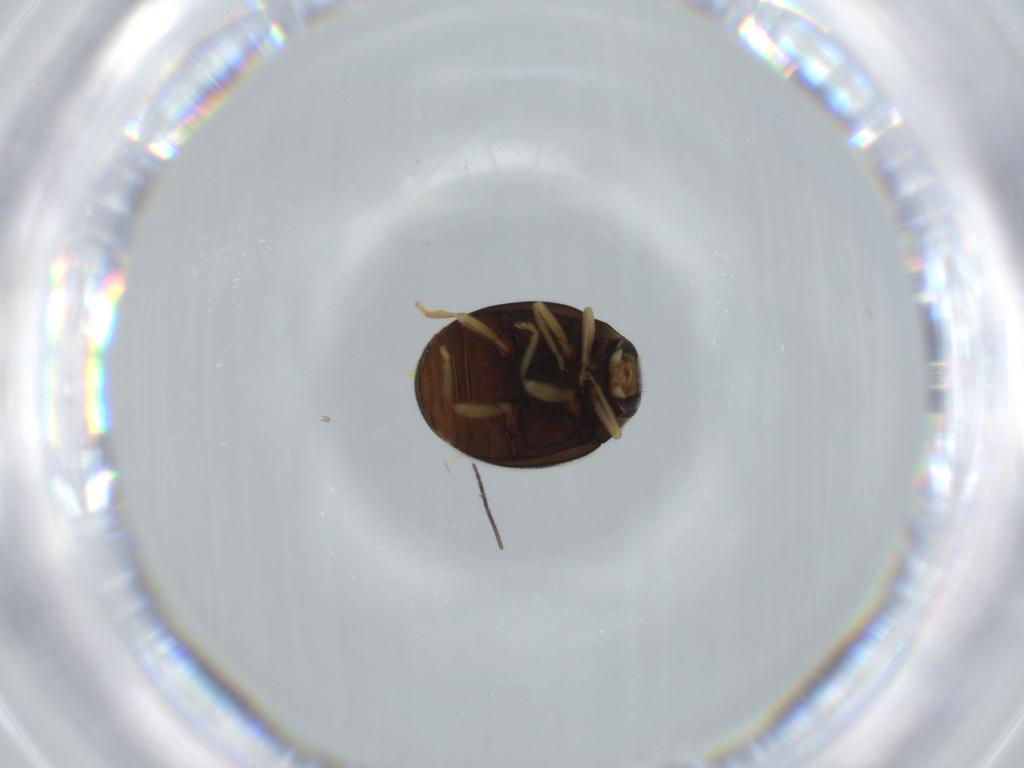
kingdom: Animalia
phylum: Arthropoda
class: Insecta
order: Coleoptera
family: Coccinellidae
